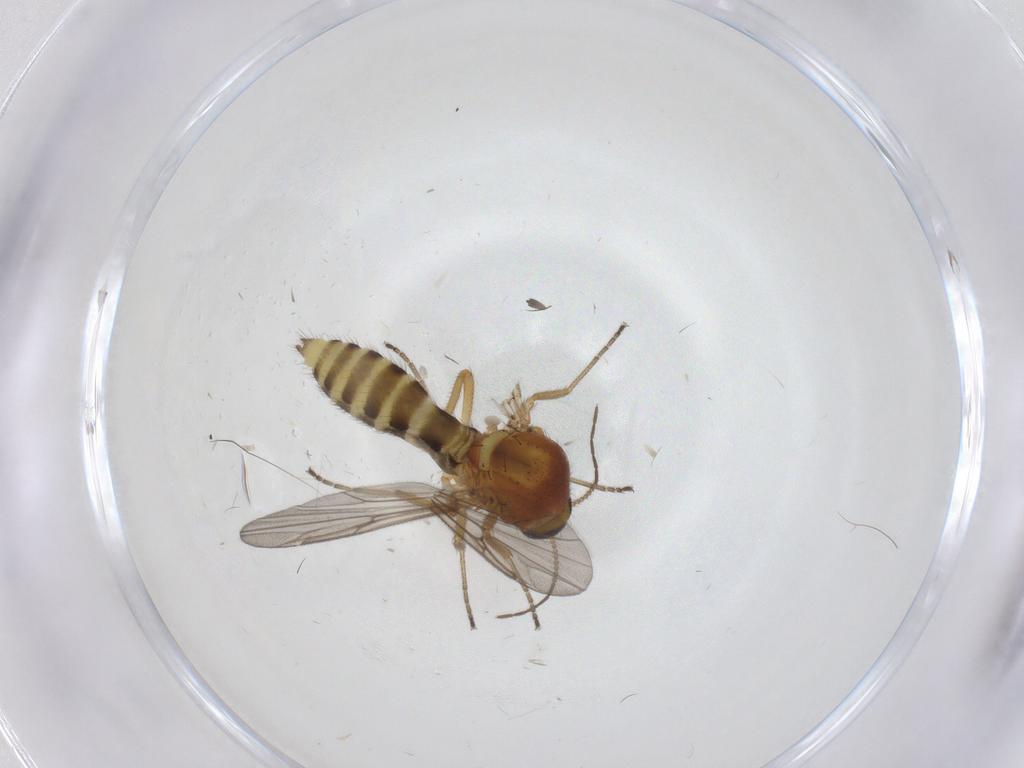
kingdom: Animalia
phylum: Arthropoda
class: Insecta
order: Diptera
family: Ceratopogonidae
